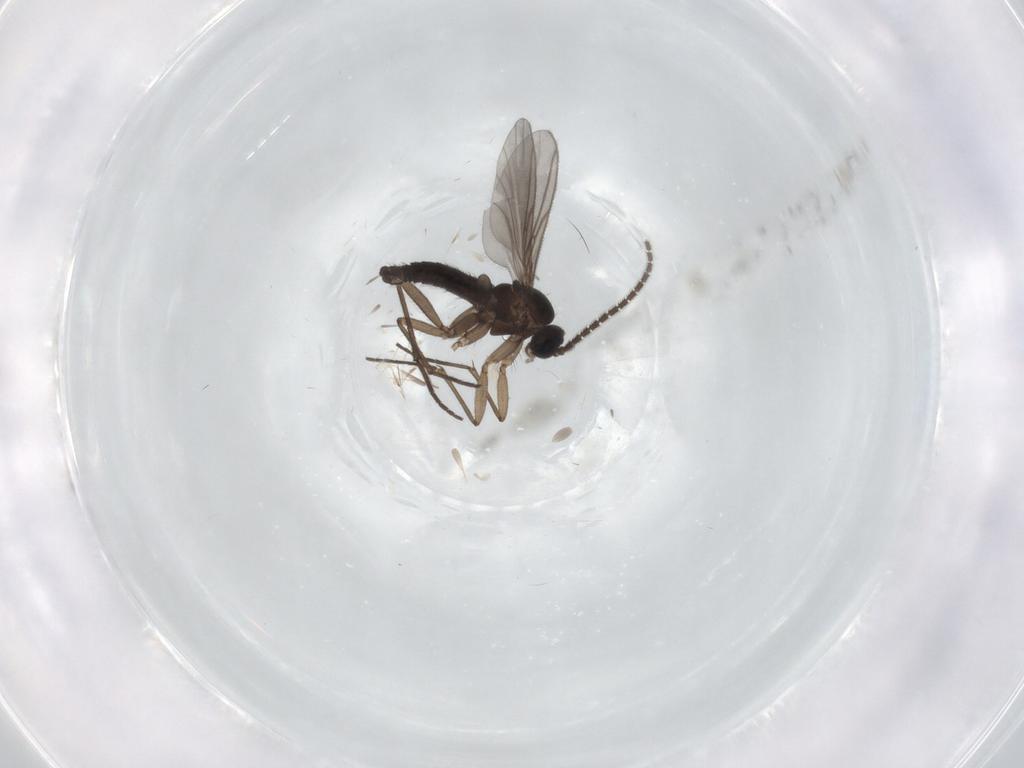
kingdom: Animalia
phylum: Arthropoda
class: Insecta
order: Diptera
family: Sciaridae
